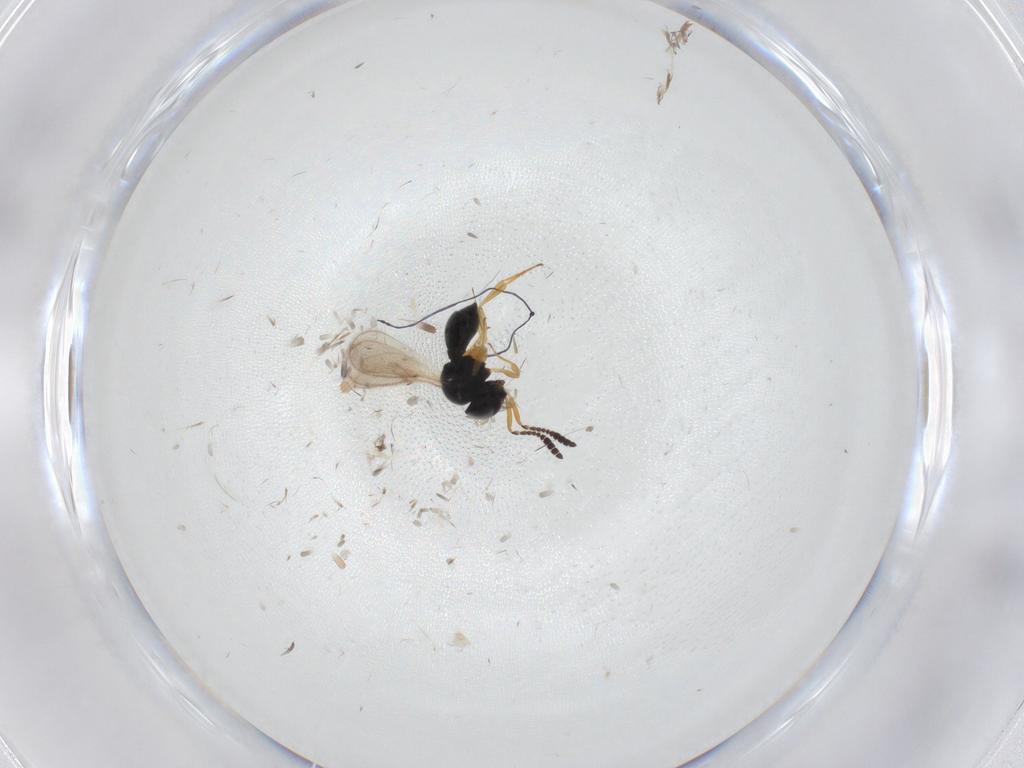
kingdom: Animalia
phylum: Arthropoda
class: Insecta
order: Hymenoptera
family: Scelionidae
